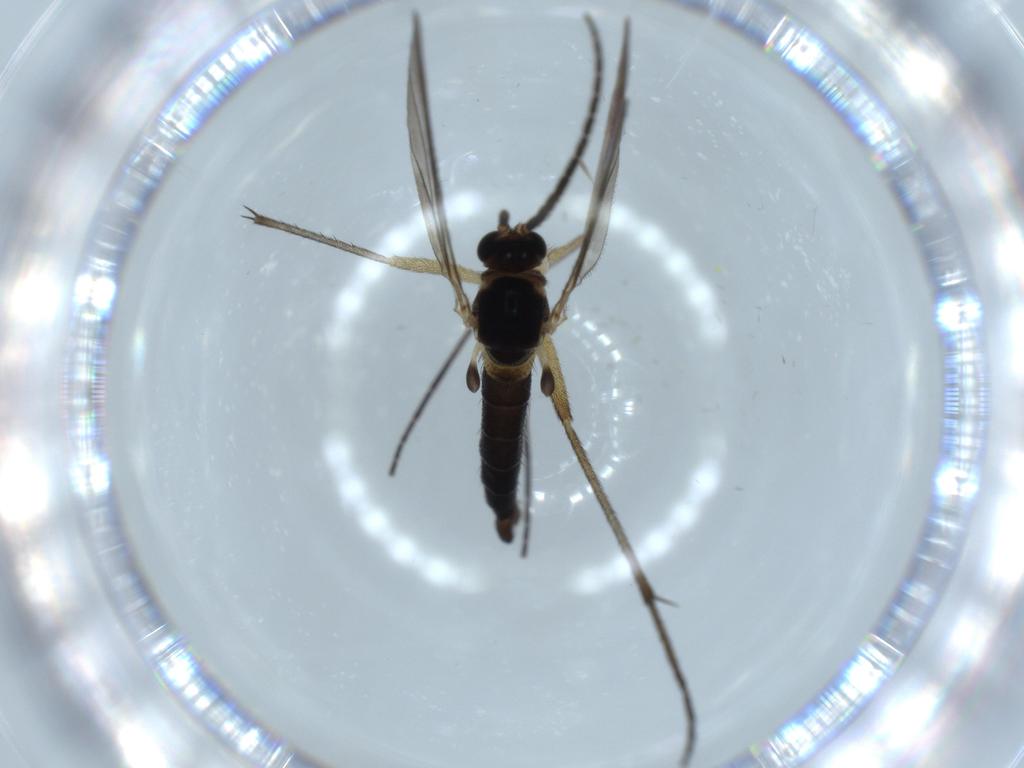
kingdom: Animalia
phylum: Arthropoda
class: Insecta
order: Diptera
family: Sciaridae
